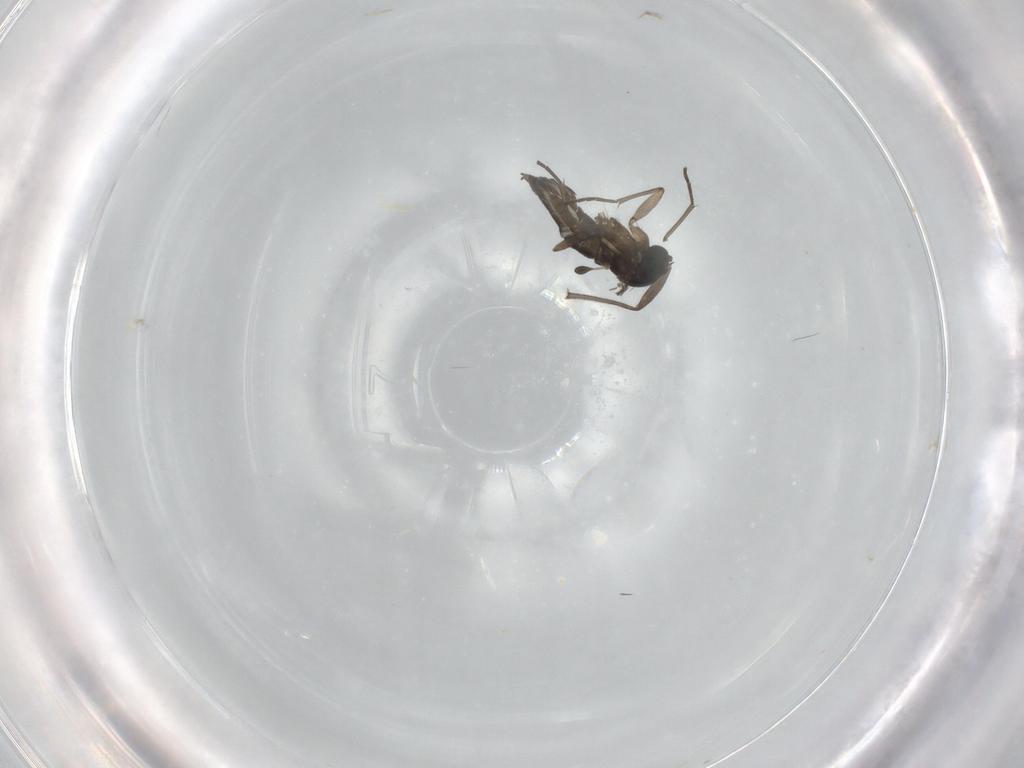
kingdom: Animalia
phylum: Arthropoda
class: Insecta
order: Diptera
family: Sciaridae
